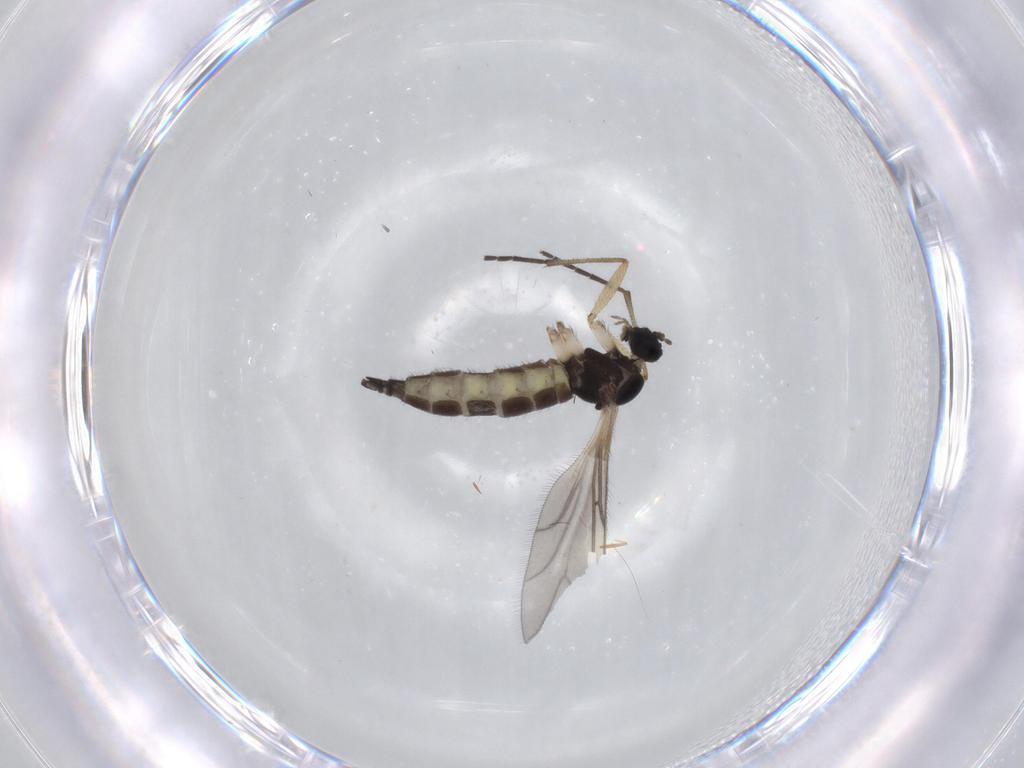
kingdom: Animalia
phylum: Arthropoda
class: Insecta
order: Diptera
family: Sciaridae
